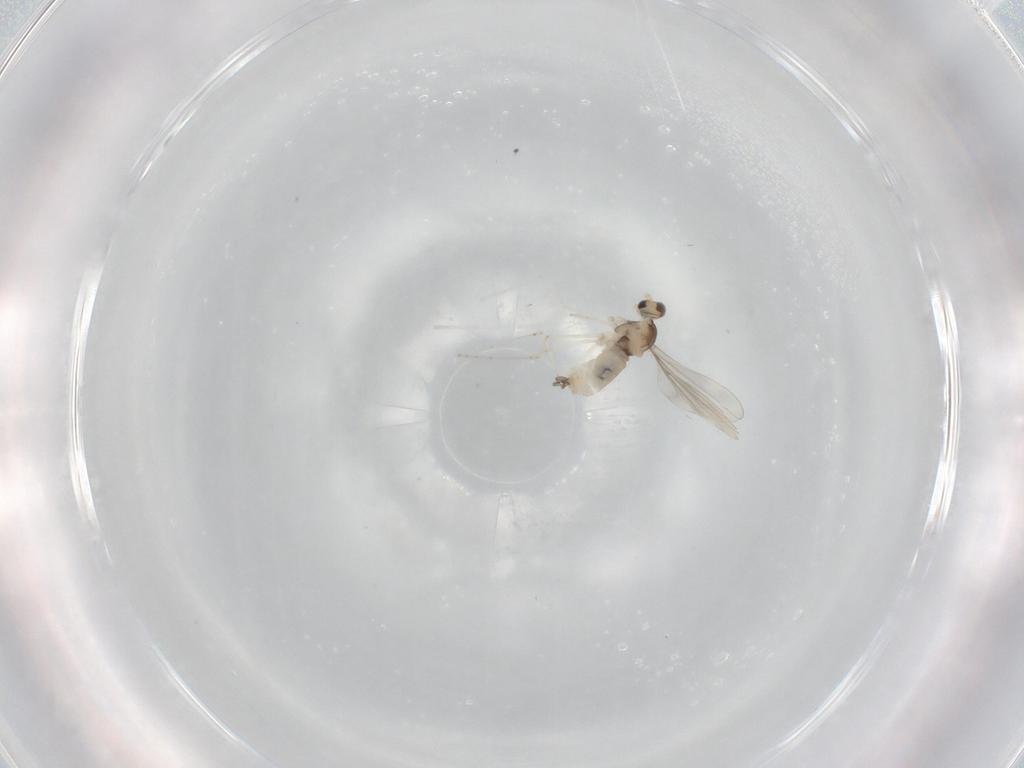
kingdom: Animalia
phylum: Arthropoda
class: Insecta
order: Diptera
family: Cecidomyiidae
